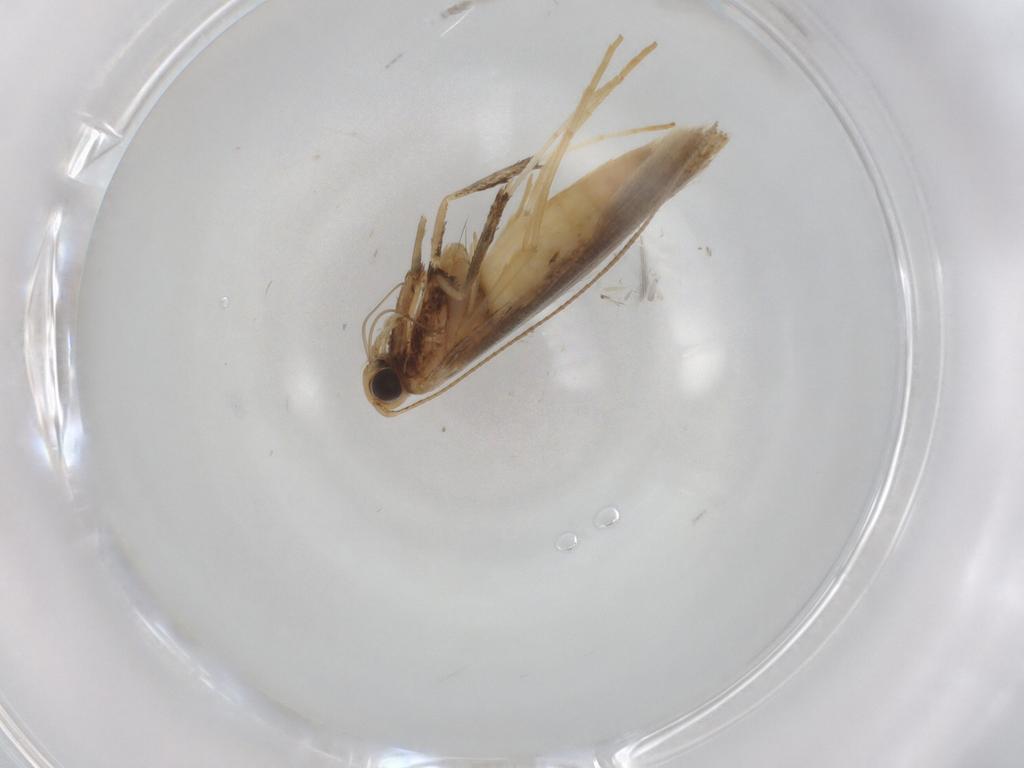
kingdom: Animalia
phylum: Arthropoda
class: Insecta
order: Lepidoptera
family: Gracillariidae
